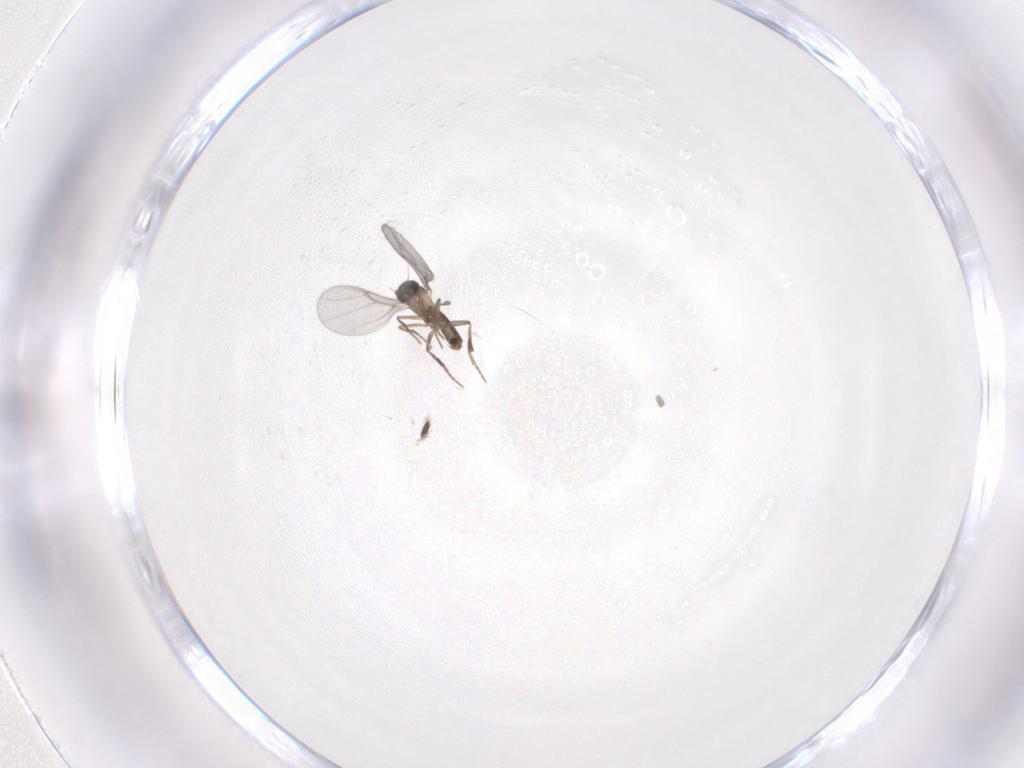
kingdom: Animalia
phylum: Arthropoda
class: Insecta
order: Diptera
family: Phoridae
